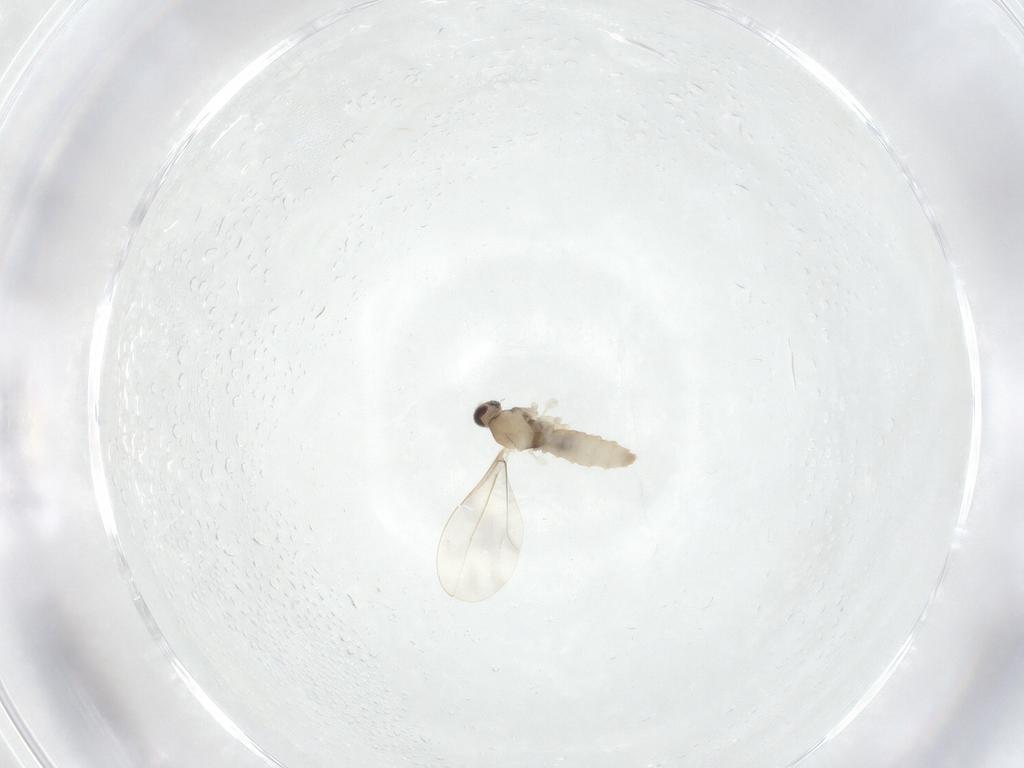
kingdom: Animalia
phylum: Arthropoda
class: Insecta
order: Diptera
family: Cecidomyiidae
